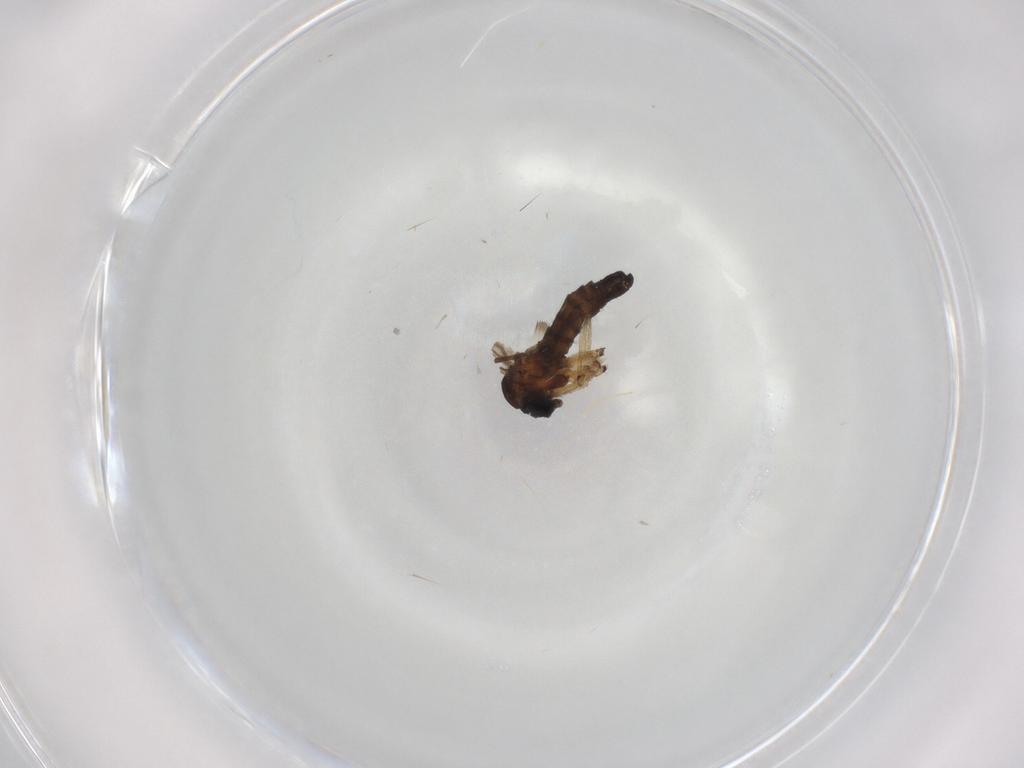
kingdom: Animalia
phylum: Arthropoda
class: Insecta
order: Diptera
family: Sciaridae
